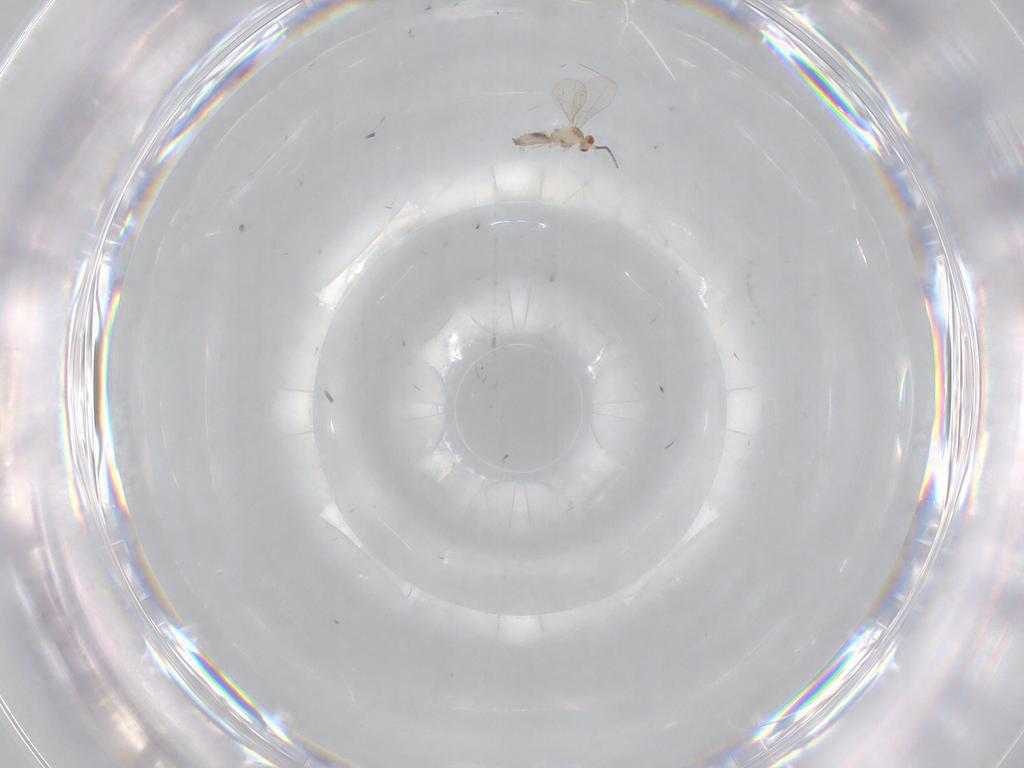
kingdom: Animalia
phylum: Arthropoda
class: Insecta
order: Diptera
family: Cecidomyiidae
